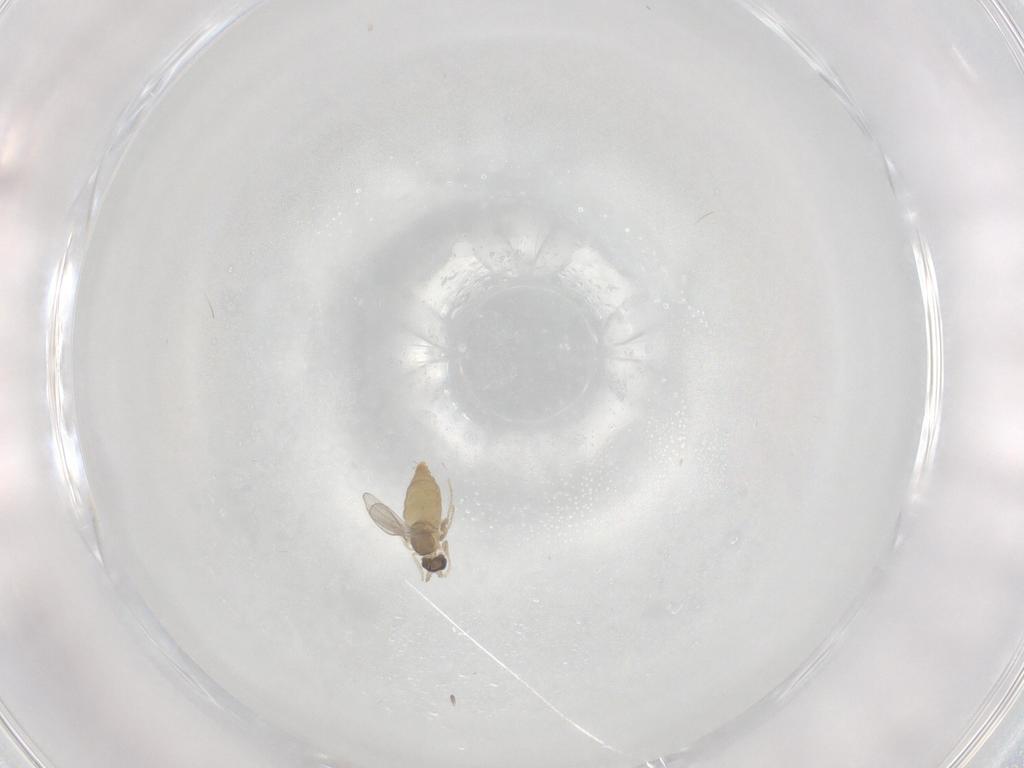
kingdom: Animalia
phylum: Arthropoda
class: Insecta
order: Diptera
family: Cecidomyiidae
